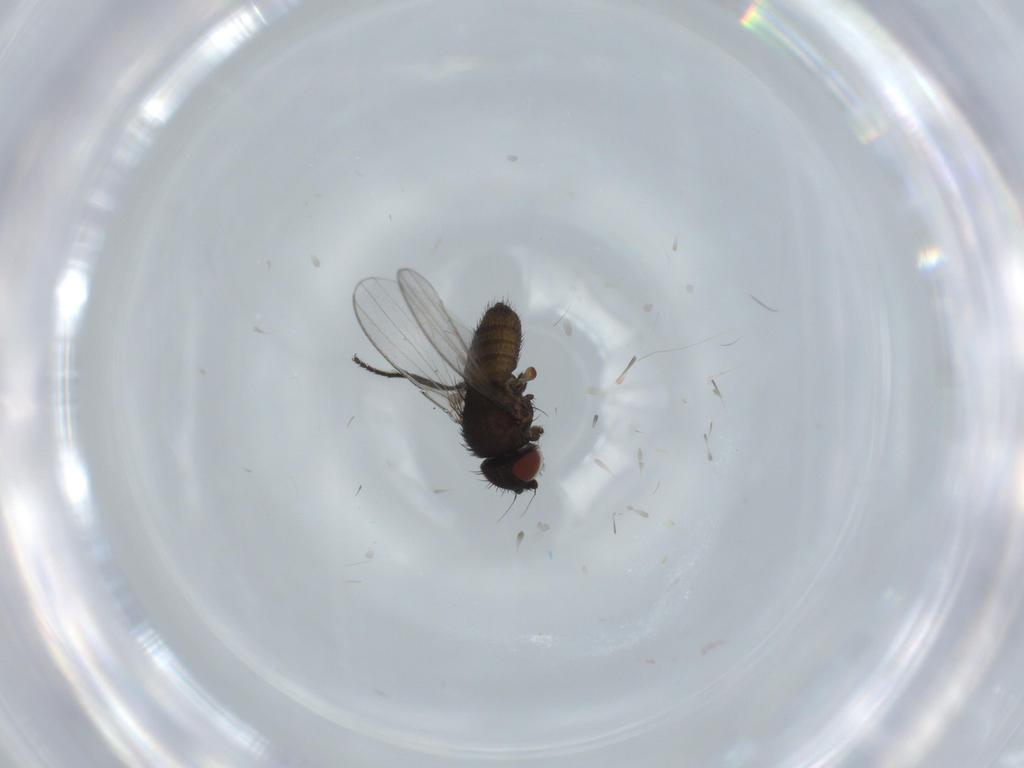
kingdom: Animalia
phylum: Arthropoda
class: Insecta
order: Diptera
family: Milichiidae
